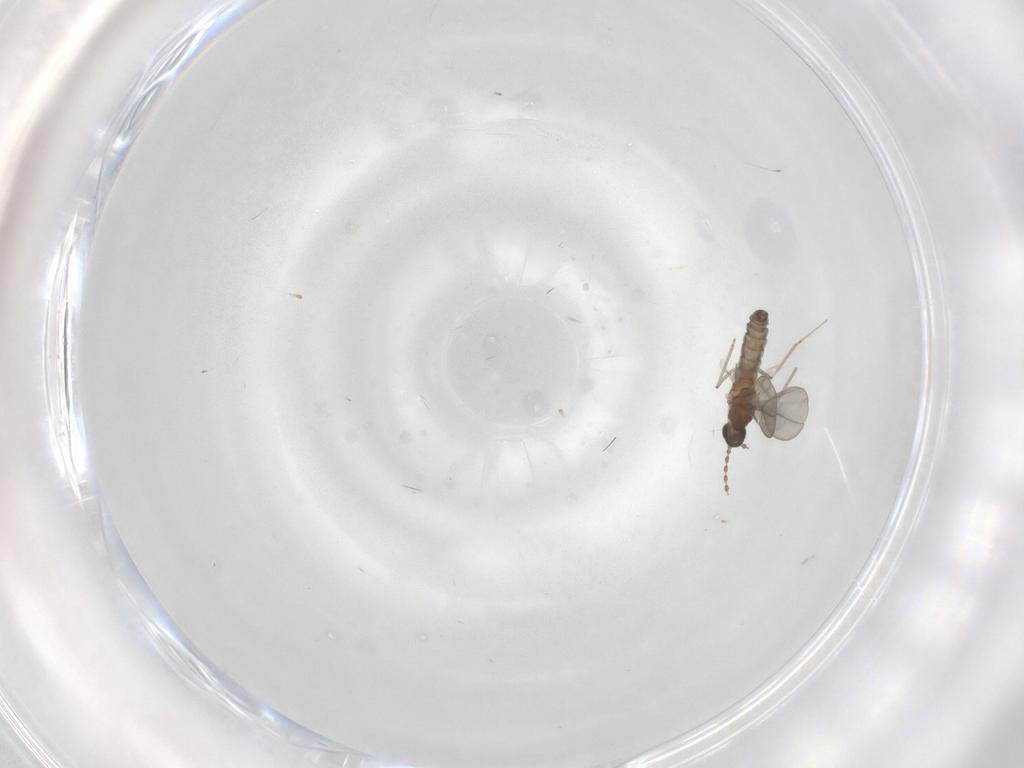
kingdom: Animalia
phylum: Arthropoda
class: Insecta
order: Diptera
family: Cecidomyiidae
